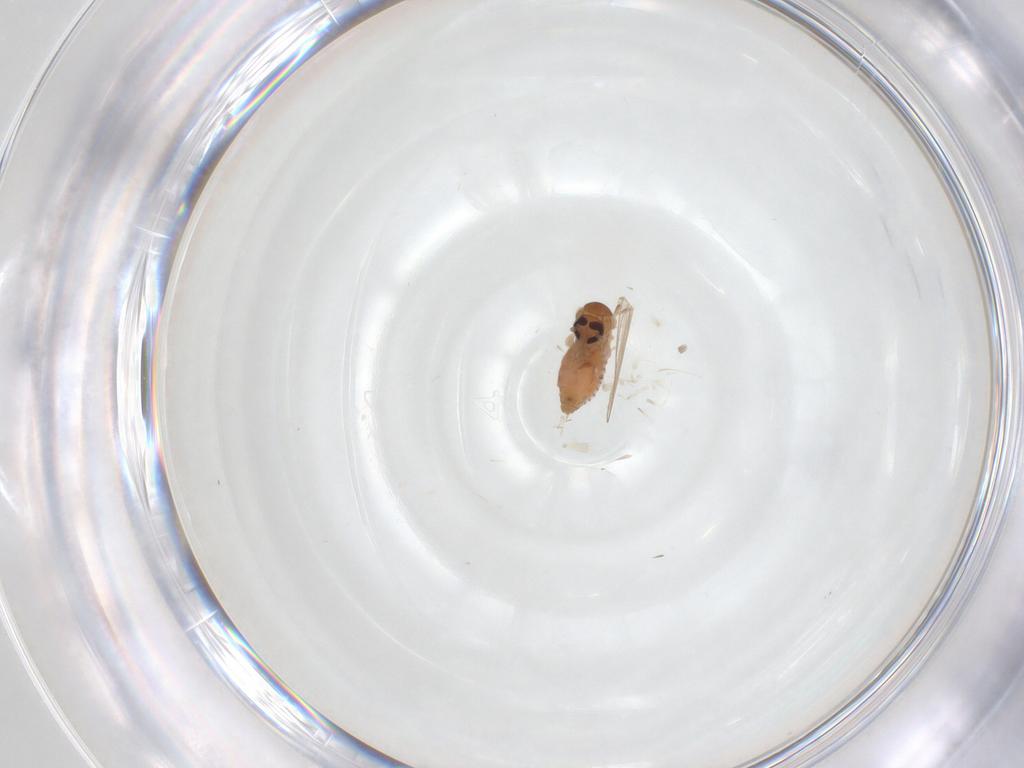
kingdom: Animalia
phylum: Arthropoda
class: Insecta
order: Diptera
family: Psychodidae
